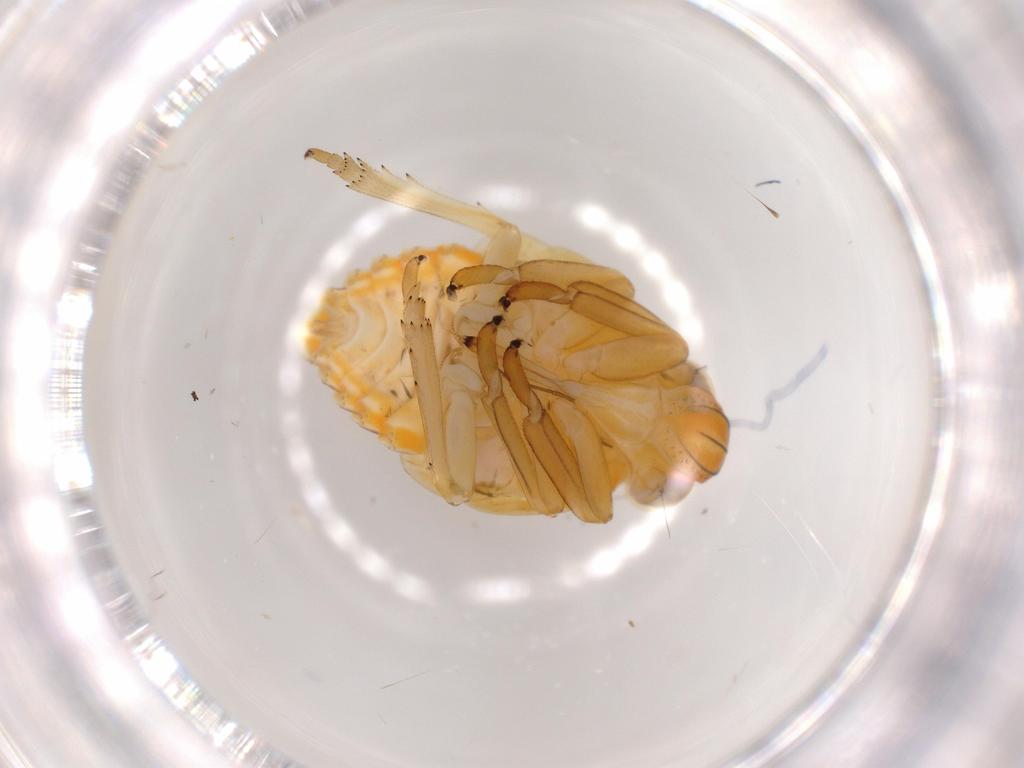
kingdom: Animalia
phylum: Arthropoda
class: Insecta
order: Hemiptera
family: Issidae
